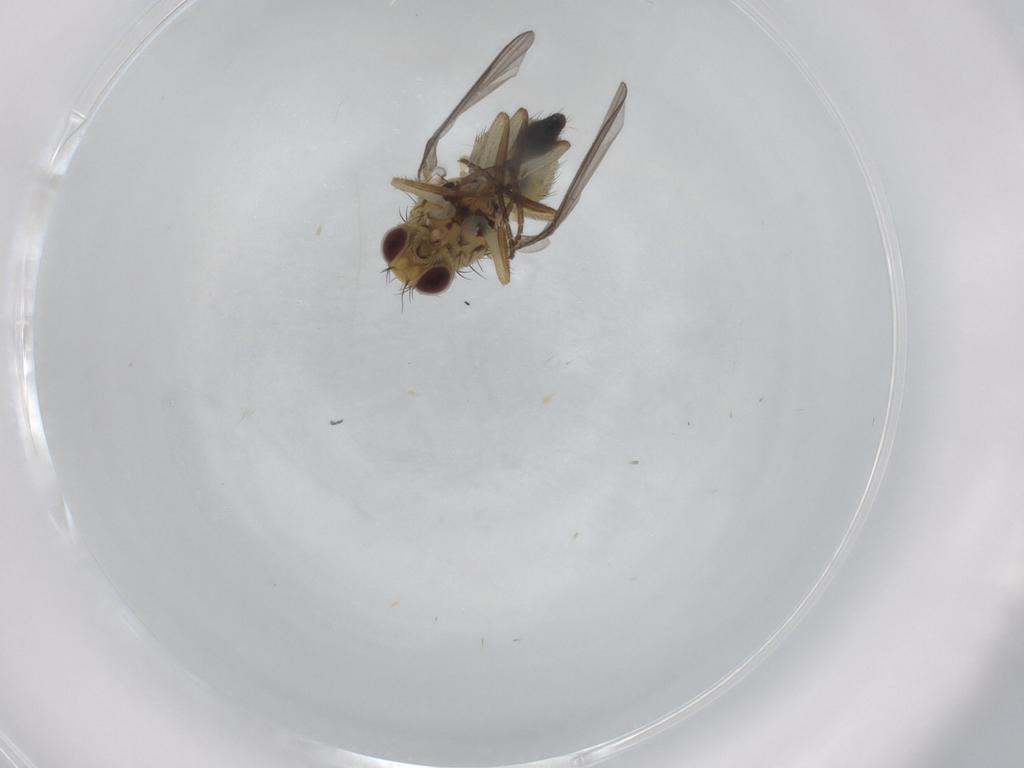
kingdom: Animalia
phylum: Arthropoda
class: Insecta
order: Diptera
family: Agromyzidae
